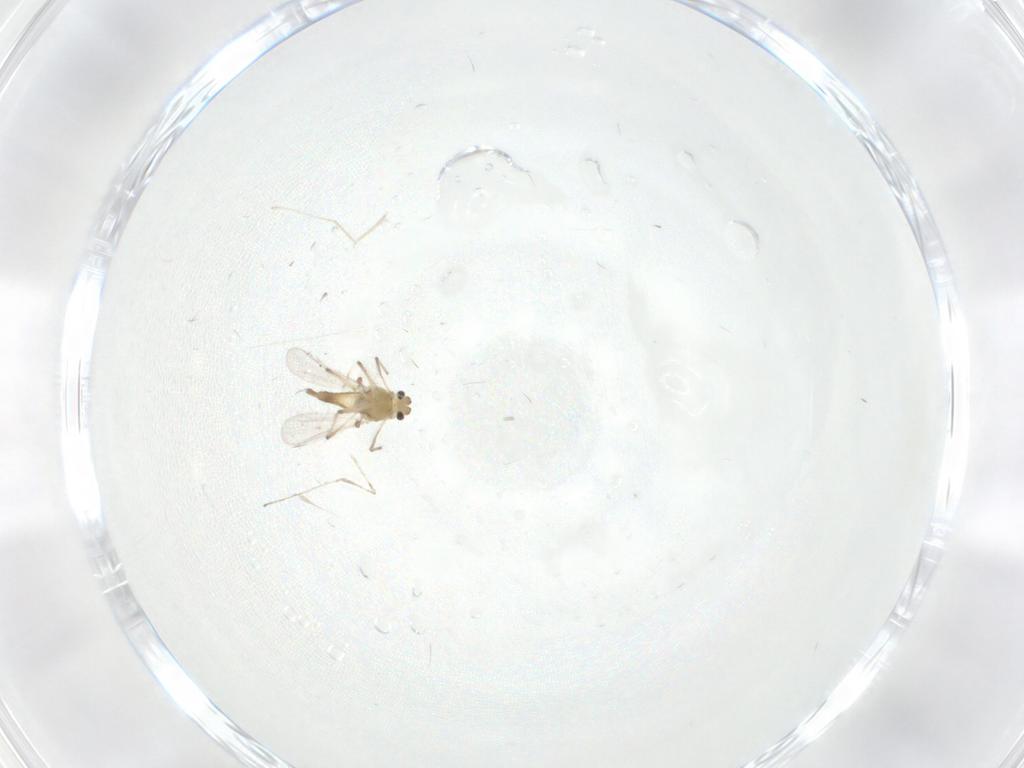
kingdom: Animalia
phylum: Arthropoda
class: Insecta
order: Diptera
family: Chironomidae
